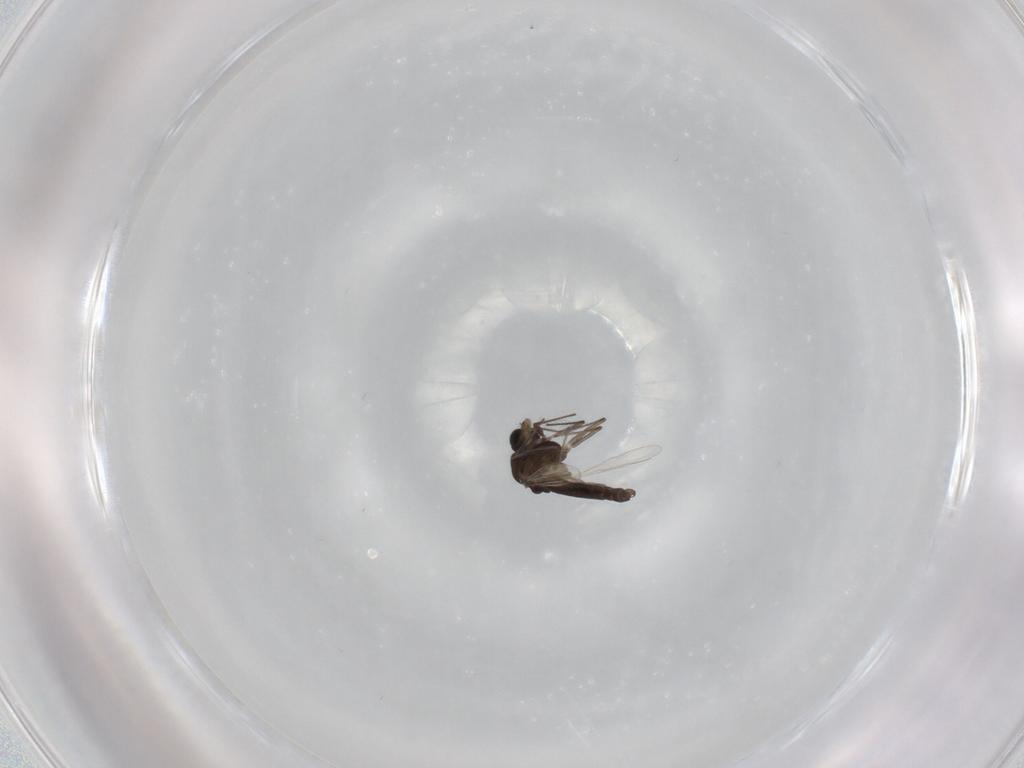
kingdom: Animalia
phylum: Arthropoda
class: Insecta
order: Diptera
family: Chironomidae
